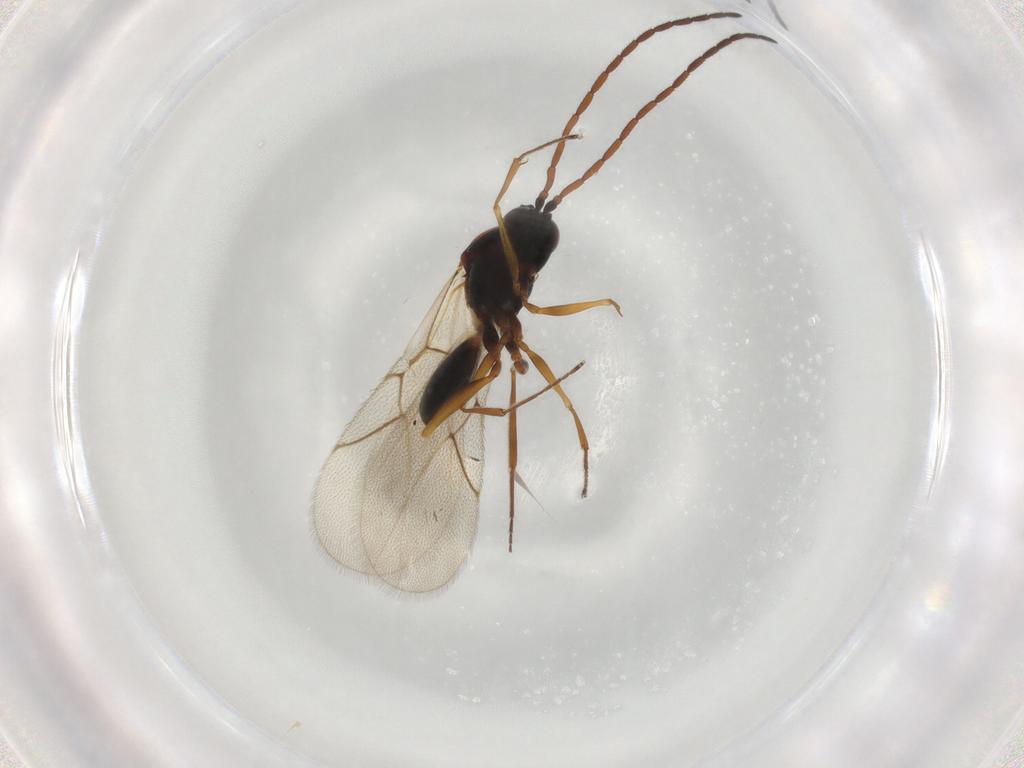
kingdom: Animalia
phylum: Arthropoda
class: Insecta
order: Hymenoptera
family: Figitidae
